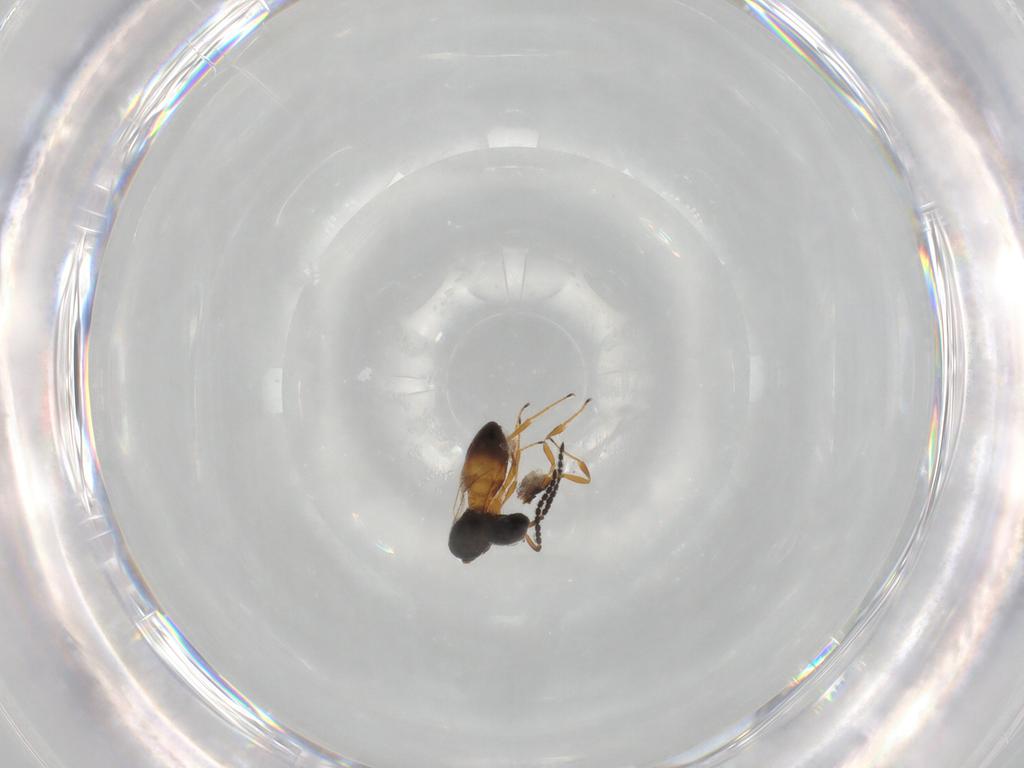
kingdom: Animalia
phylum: Arthropoda
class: Insecta
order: Hymenoptera
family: Scelionidae
